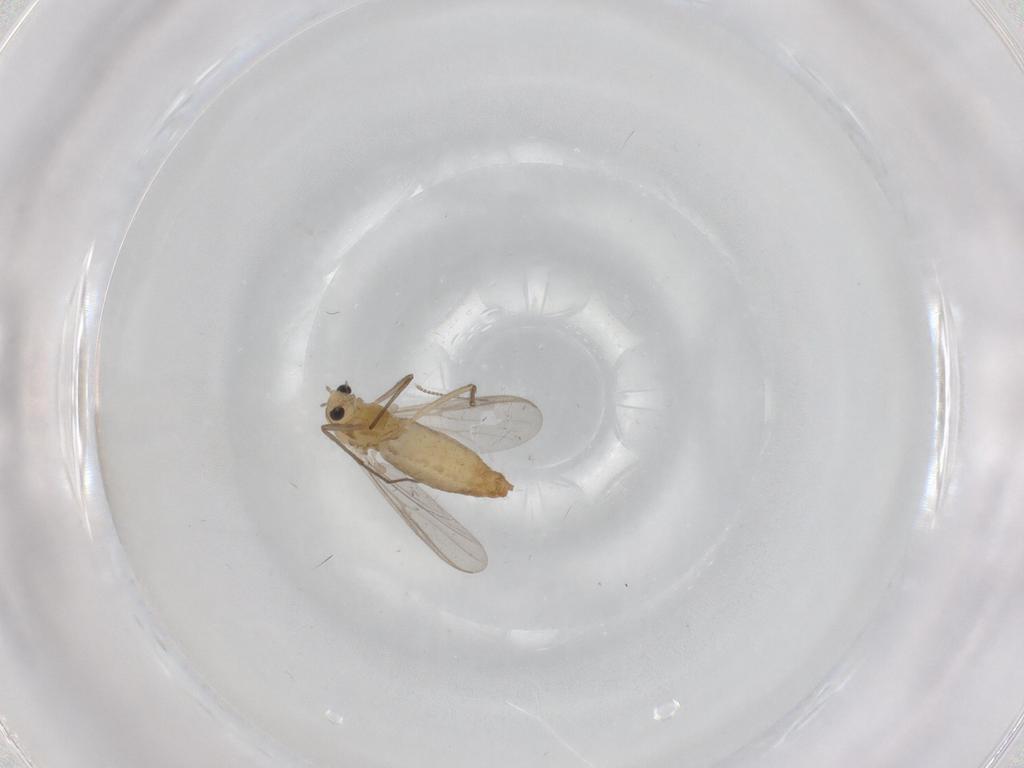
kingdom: Animalia
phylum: Arthropoda
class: Insecta
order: Diptera
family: Chironomidae
